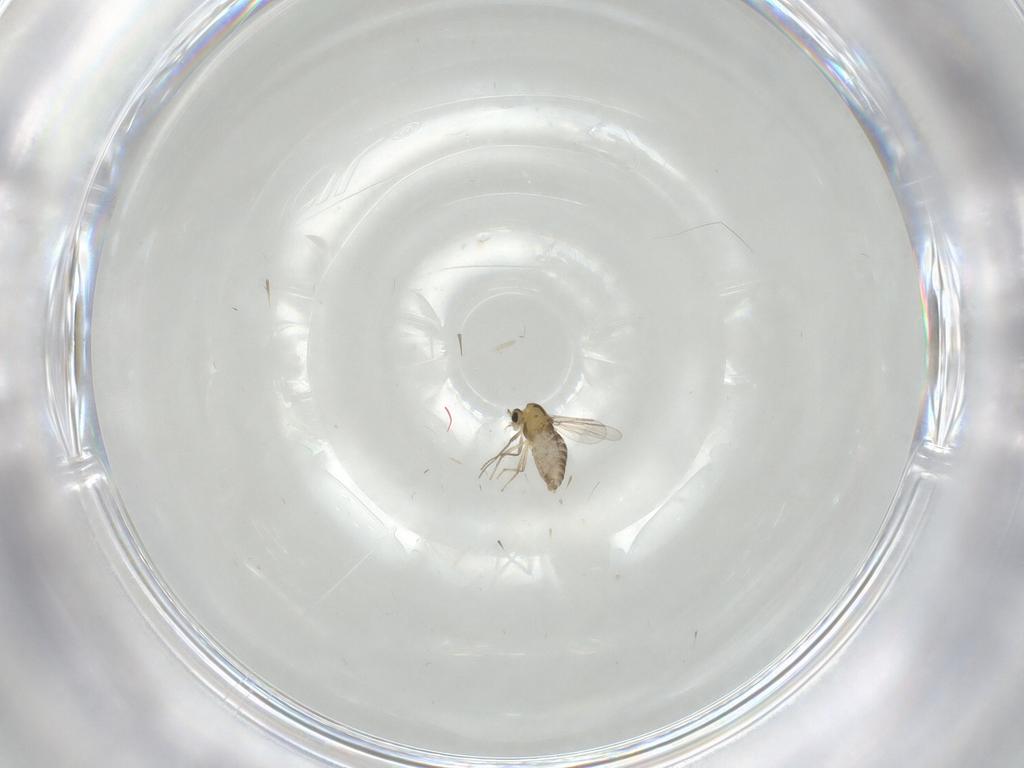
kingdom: Animalia
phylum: Arthropoda
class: Insecta
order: Diptera
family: Chironomidae
